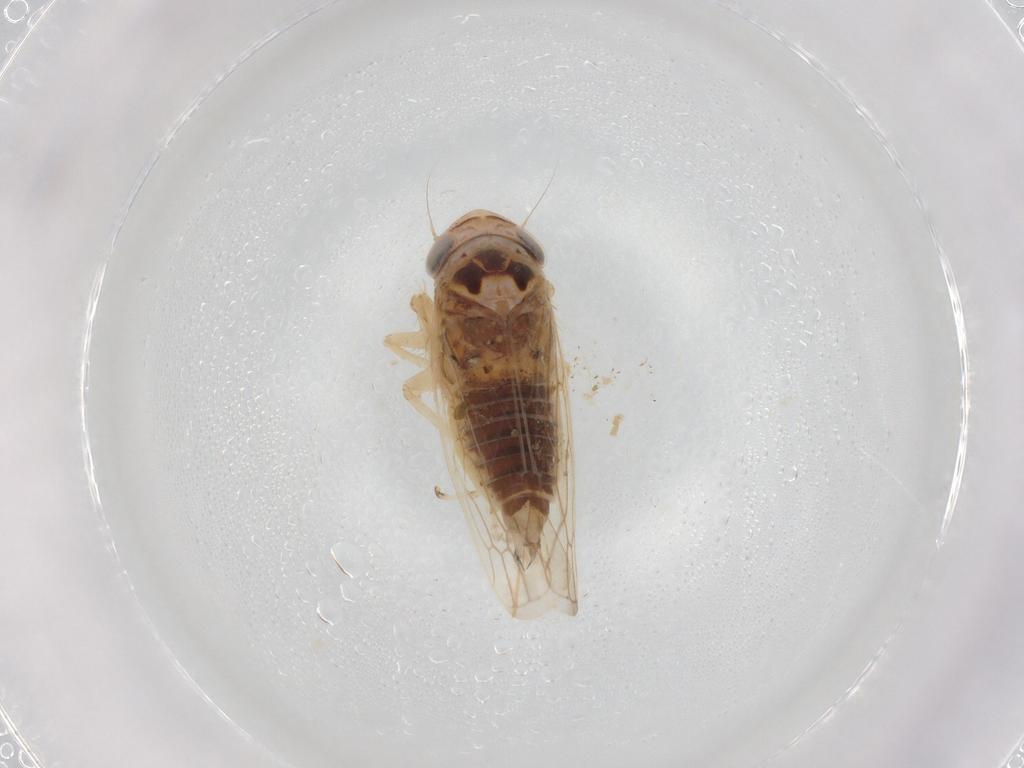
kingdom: Animalia
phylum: Arthropoda
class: Insecta
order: Hemiptera
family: Cicadellidae
